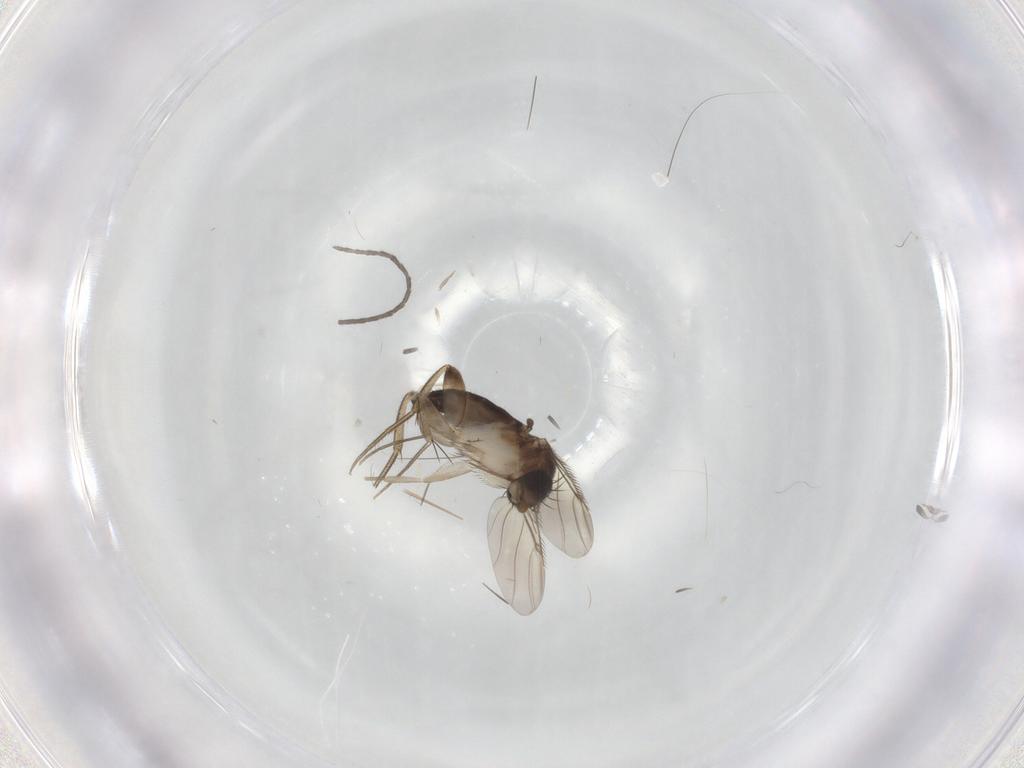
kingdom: Animalia
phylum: Arthropoda
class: Insecta
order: Diptera
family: Phoridae
